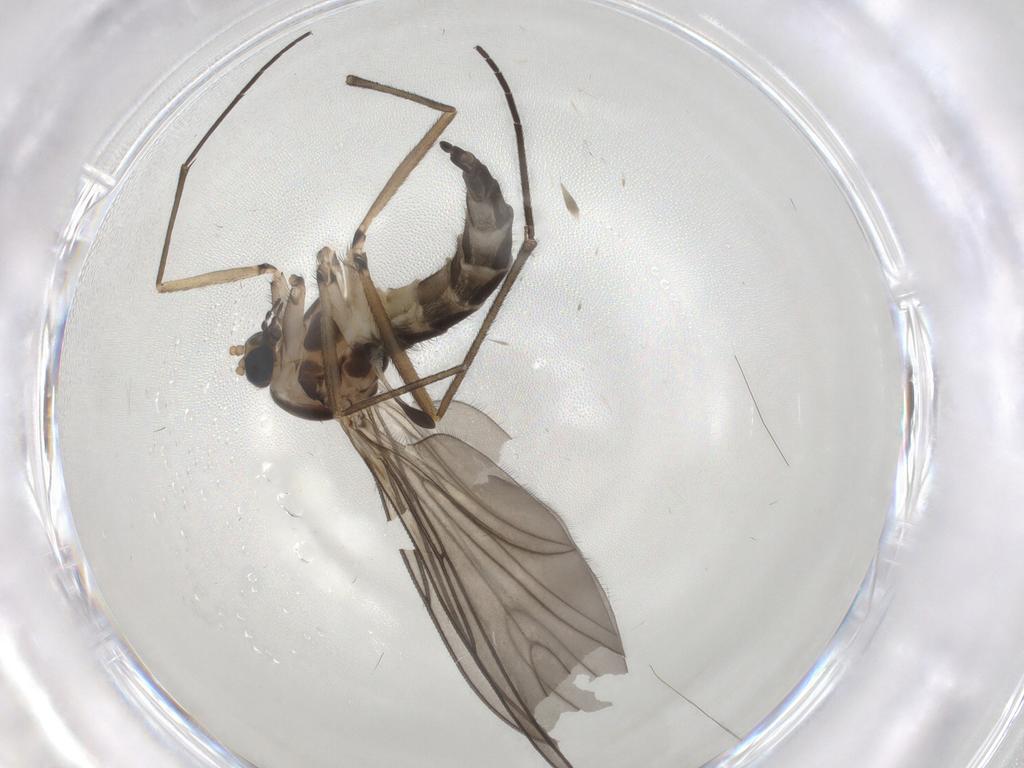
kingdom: Animalia
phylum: Arthropoda
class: Insecta
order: Diptera
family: Sciaridae
